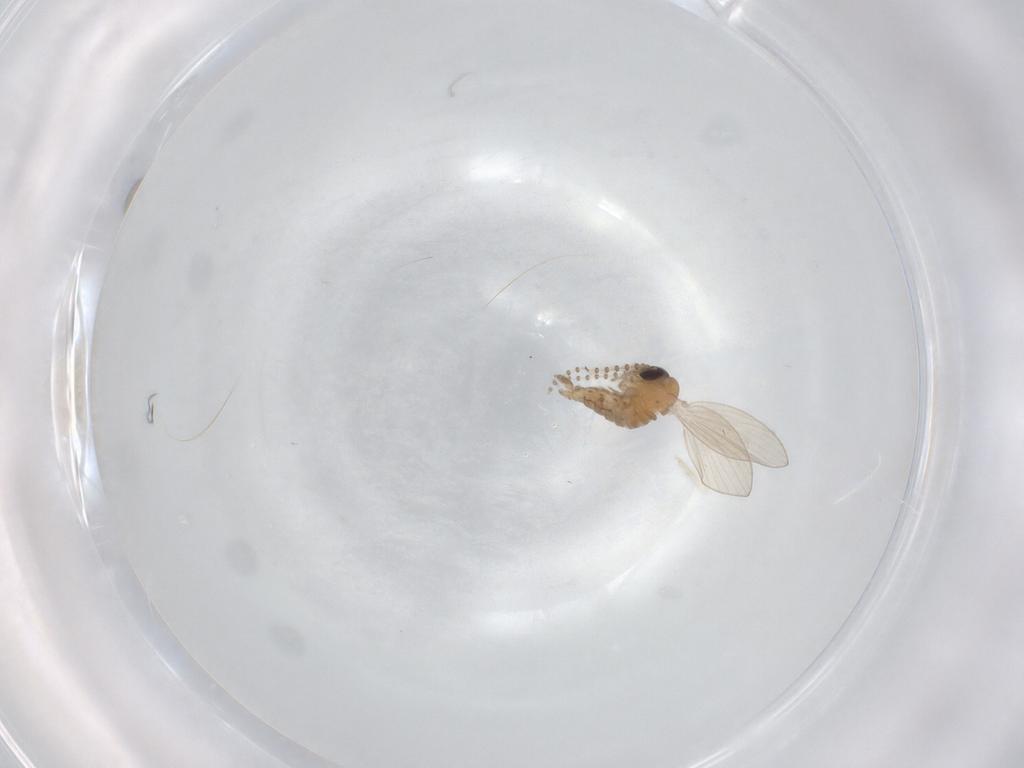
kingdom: Animalia
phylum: Arthropoda
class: Insecta
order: Diptera
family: Psychodidae
